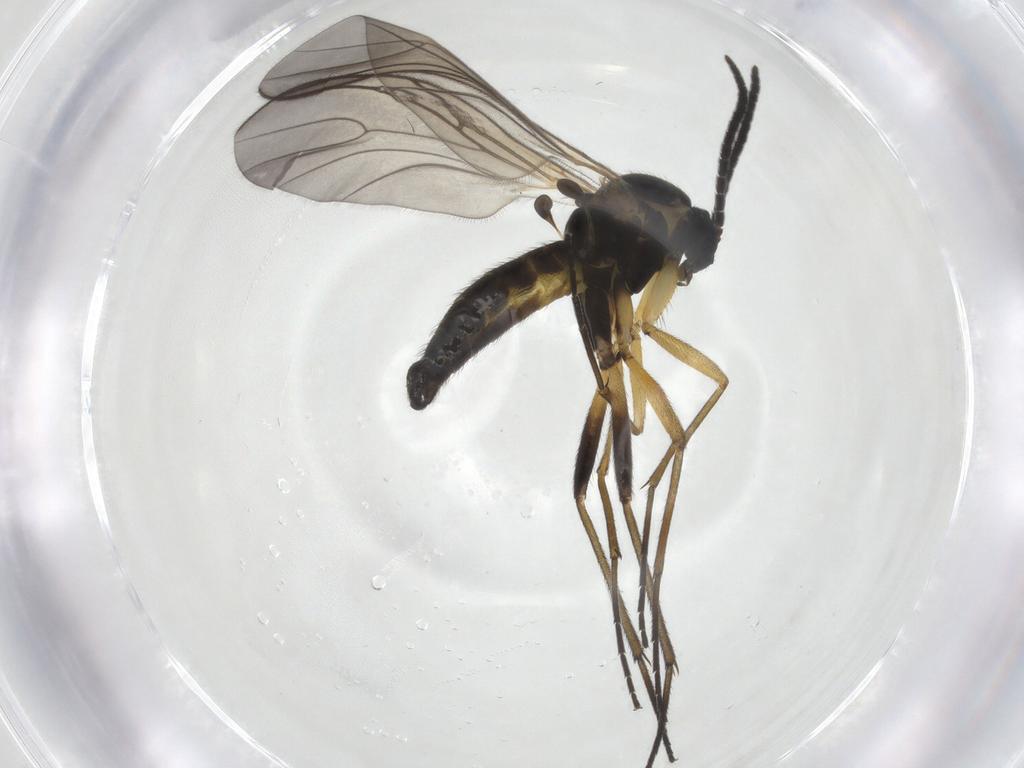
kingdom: Animalia
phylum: Arthropoda
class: Insecta
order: Diptera
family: Sciaridae
